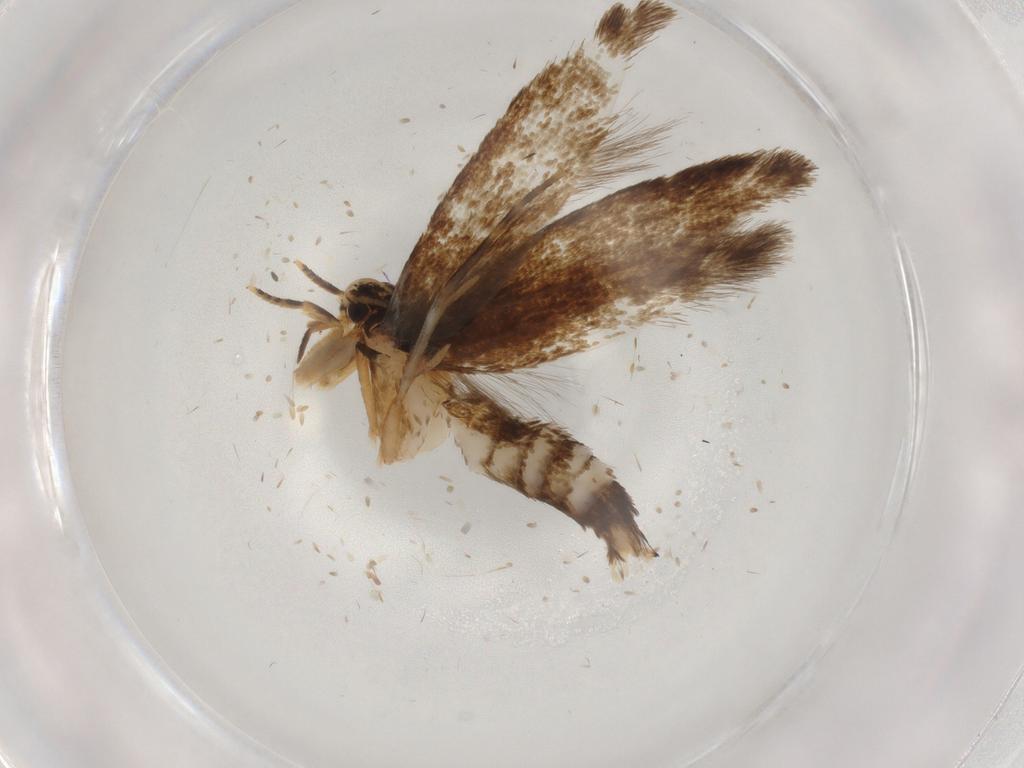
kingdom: Animalia
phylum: Arthropoda
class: Insecta
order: Lepidoptera
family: Tineidae
